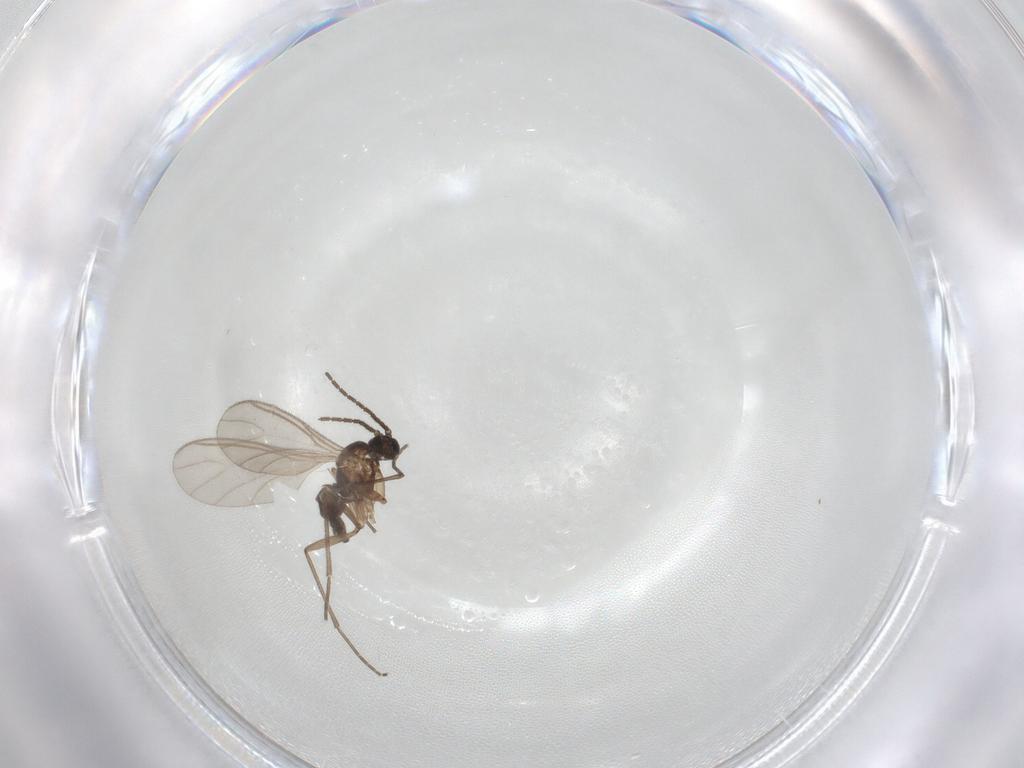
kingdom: Animalia
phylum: Arthropoda
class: Insecta
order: Diptera
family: Sciaridae
